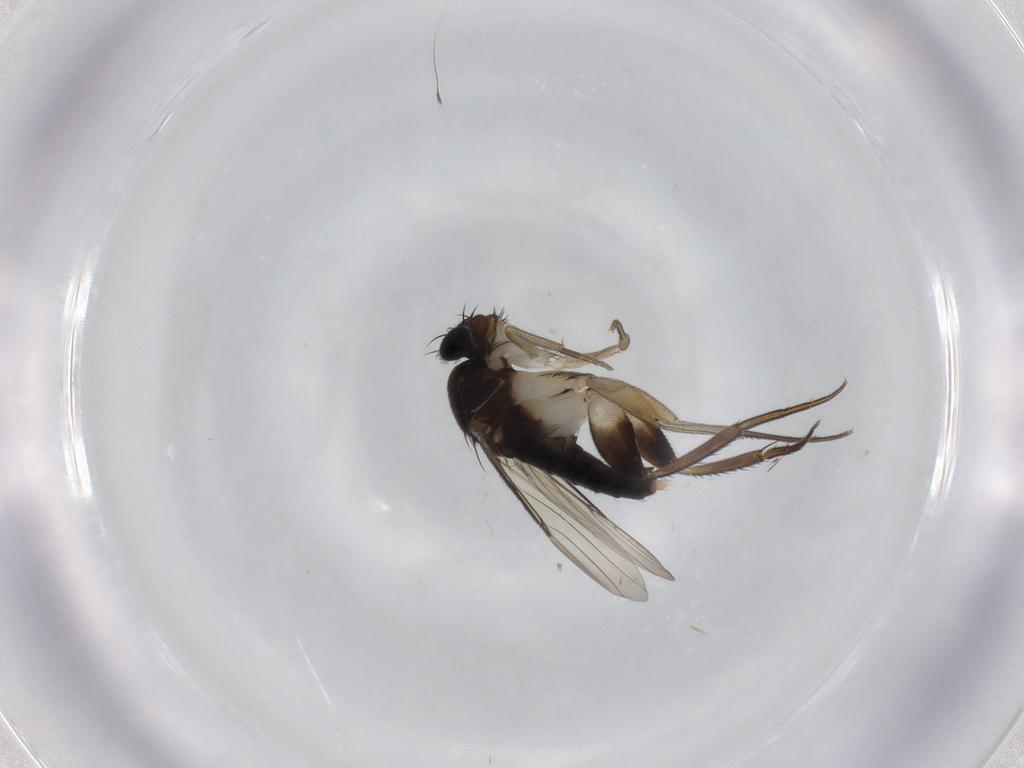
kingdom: Animalia
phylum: Arthropoda
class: Insecta
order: Diptera
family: Phoridae
